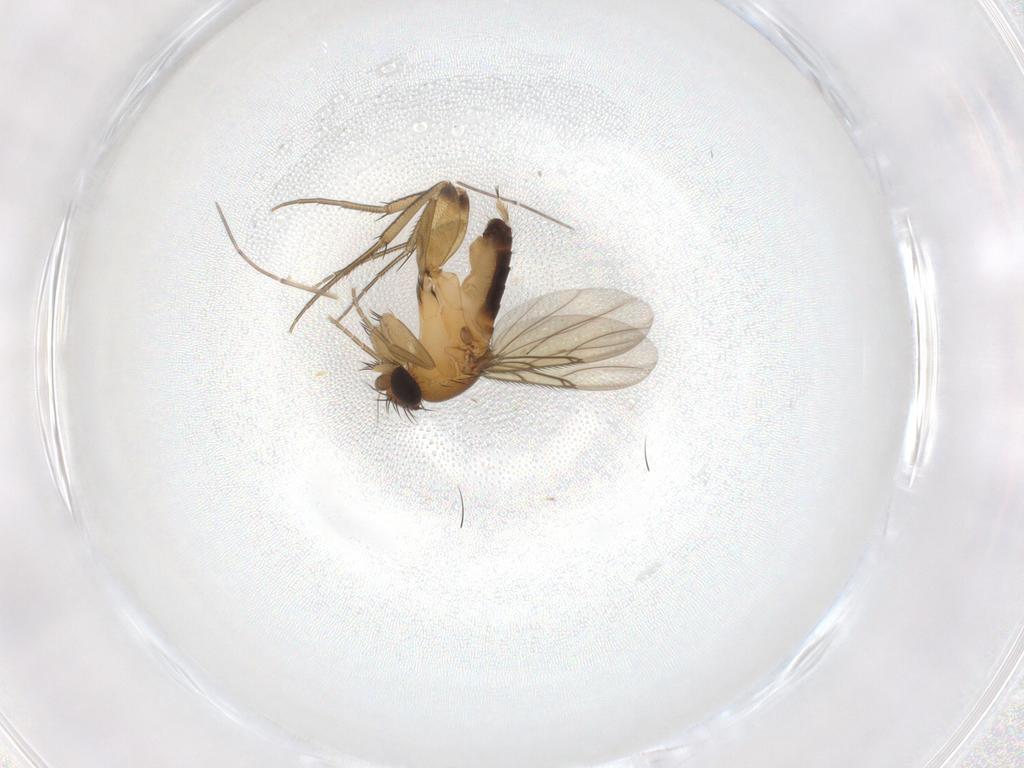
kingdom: Animalia
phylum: Arthropoda
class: Insecta
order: Diptera
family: Phoridae
